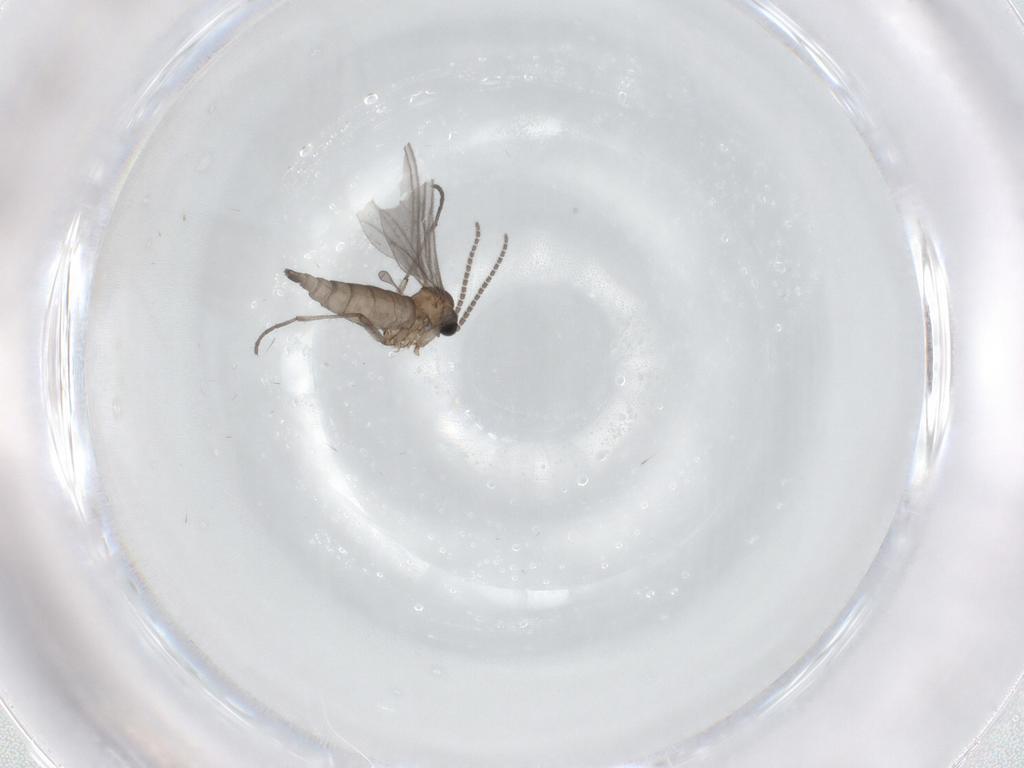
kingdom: Animalia
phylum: Arthropoda
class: Insecta
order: Diptera
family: Sciaridae
